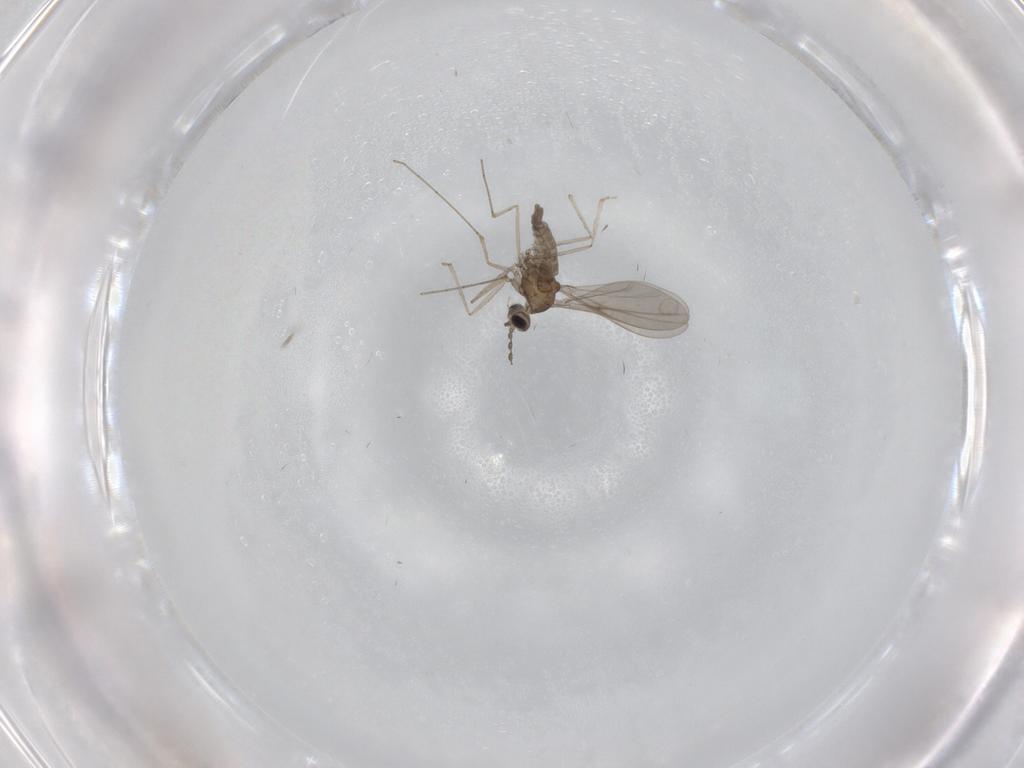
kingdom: Animalia
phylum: Arthropoda
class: Insecta
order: Diptera
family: Cecidomyiidae
